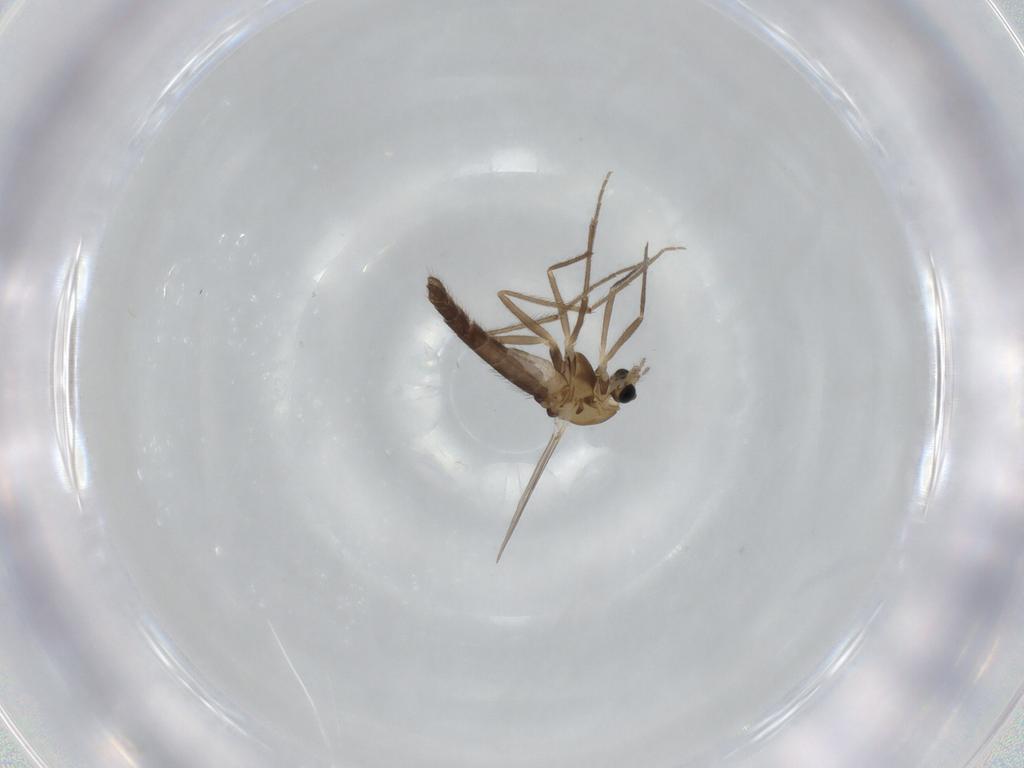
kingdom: Animalia
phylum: Arthropoda
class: Insecta
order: Diptera
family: Chironomidae
